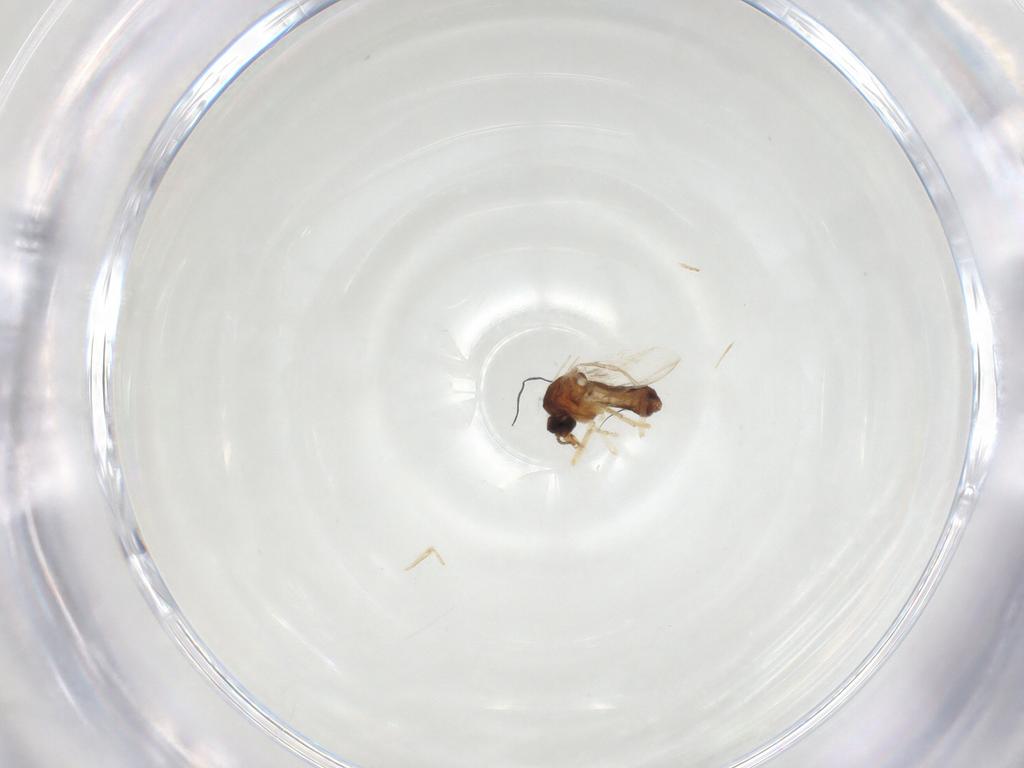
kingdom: Animalia
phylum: Arthropoda
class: Insecta
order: Diptera
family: Ceratopogonidae
